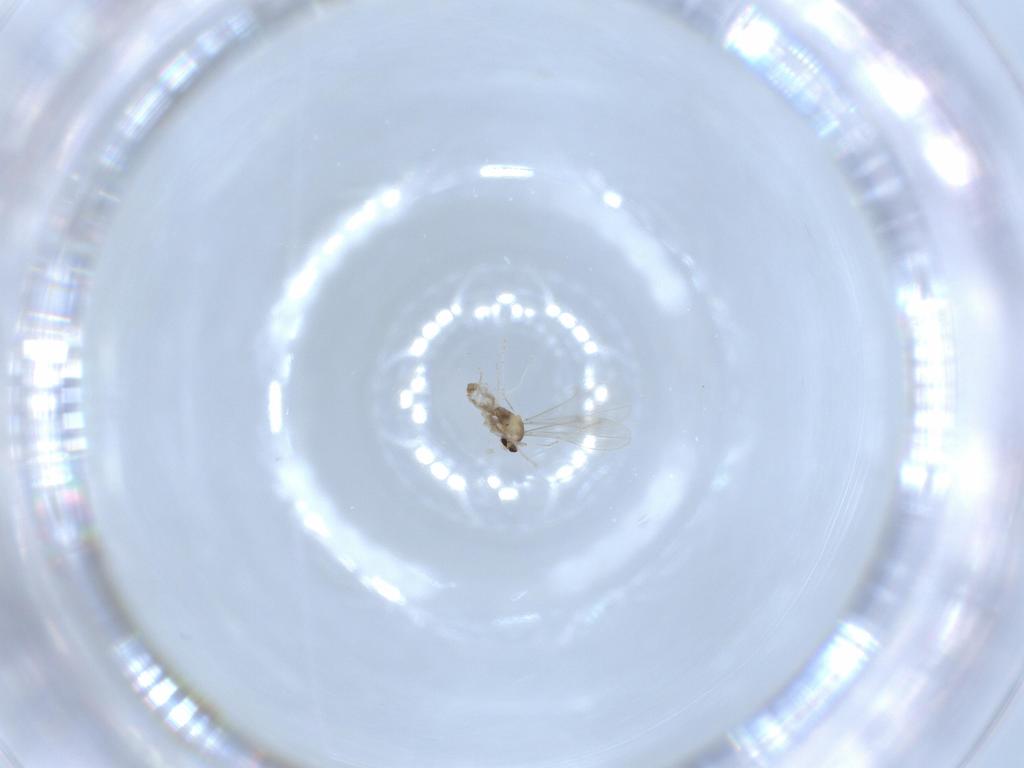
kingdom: Animalia
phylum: Arthropoda
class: Insecta
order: Diptera
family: Cecidomyiidae
